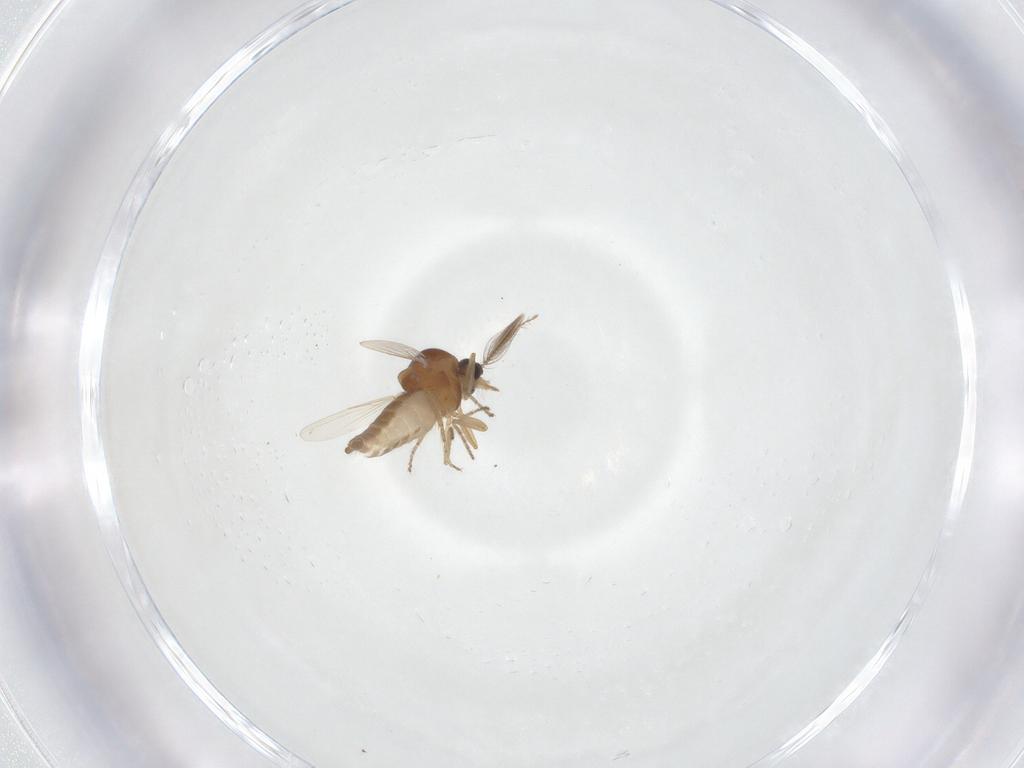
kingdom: Animalia
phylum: Arthropoda
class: Insecta
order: Diptera
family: Ceratopogonidae
